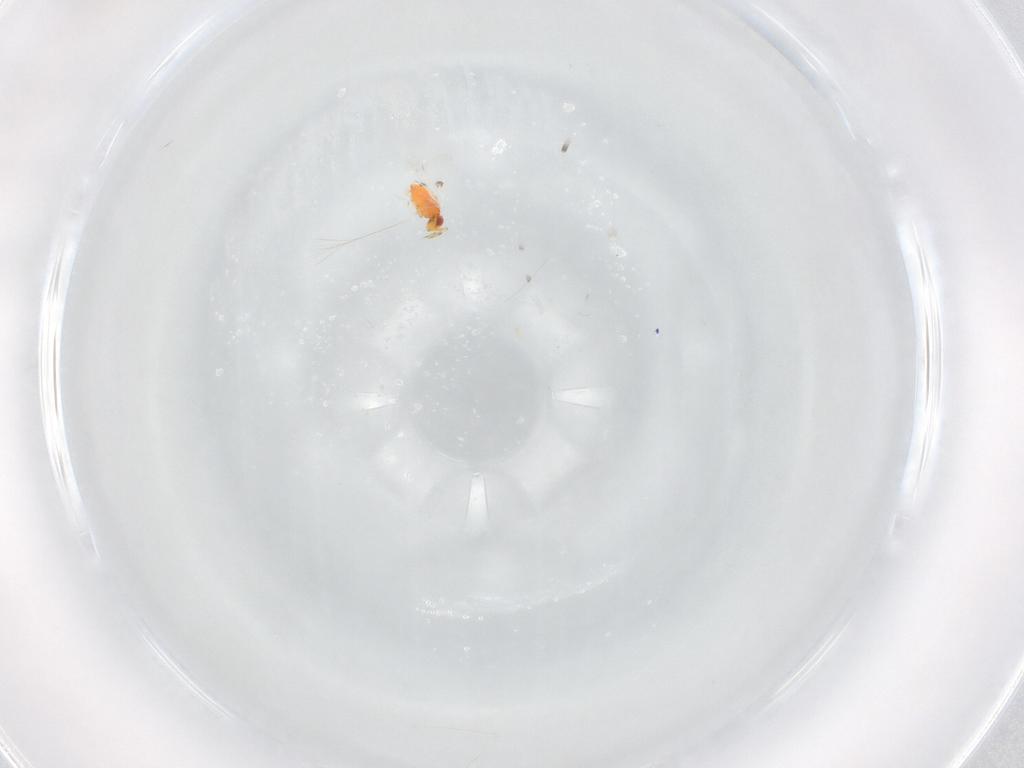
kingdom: Animalia
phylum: Arthropoda
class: Insecta
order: Hymenoptera
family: Trichogrammatidae
